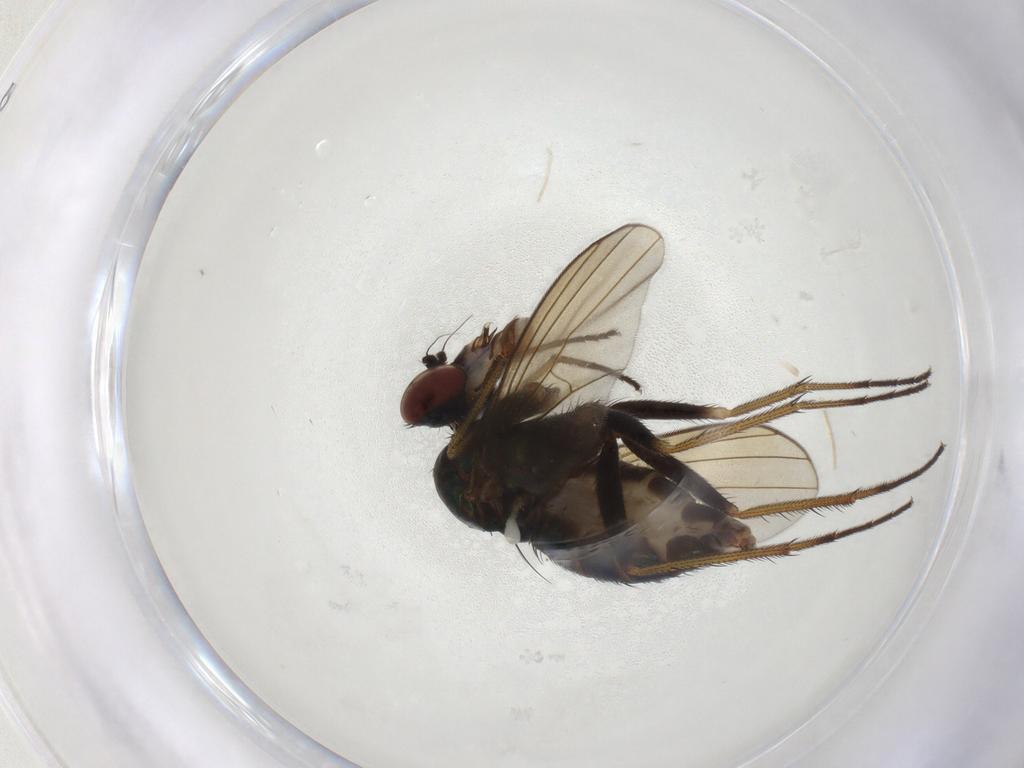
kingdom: Animalia
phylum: Arthropoda
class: Insecta
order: Diptera
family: Dolichopodidae
